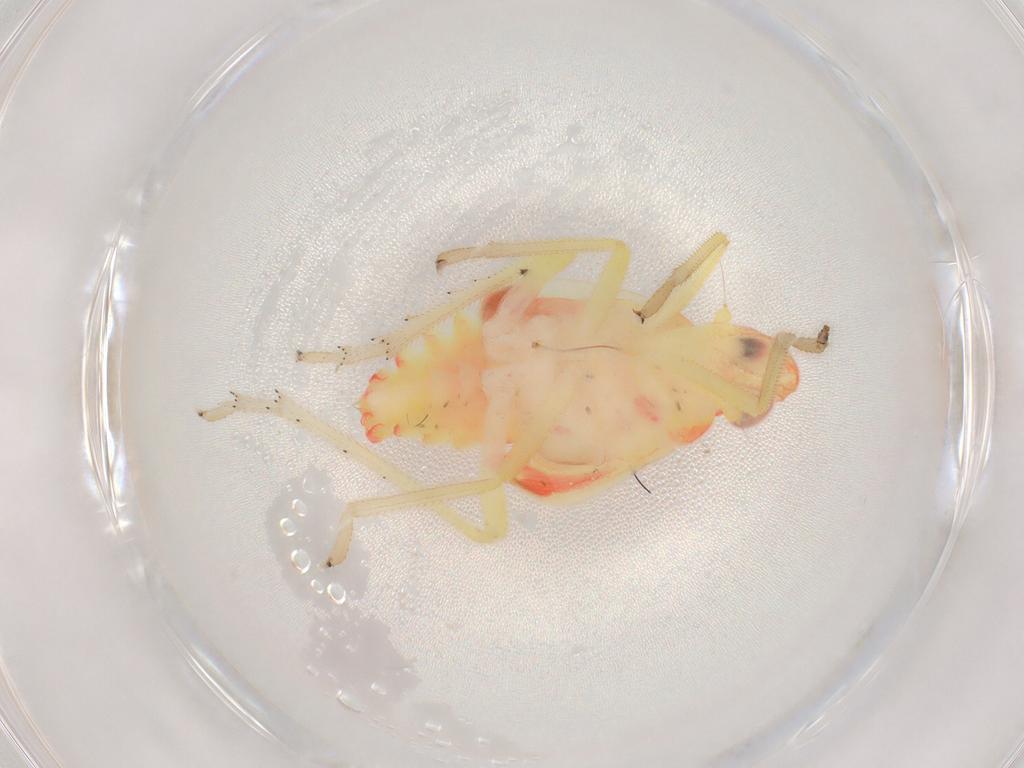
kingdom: Animalia
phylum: Arthropoda
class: Insecta
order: Hemiptera
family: Tropiduchidae
